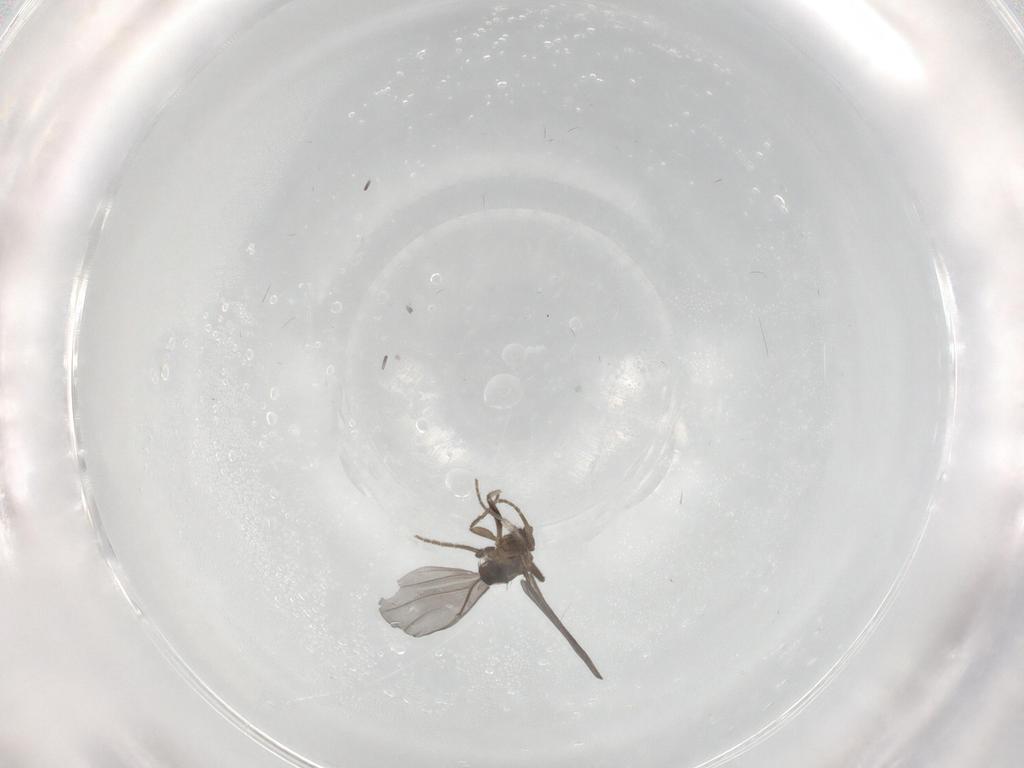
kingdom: Animalia
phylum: Arthropoda
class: Insecta
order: Diptera
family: Phoridae
